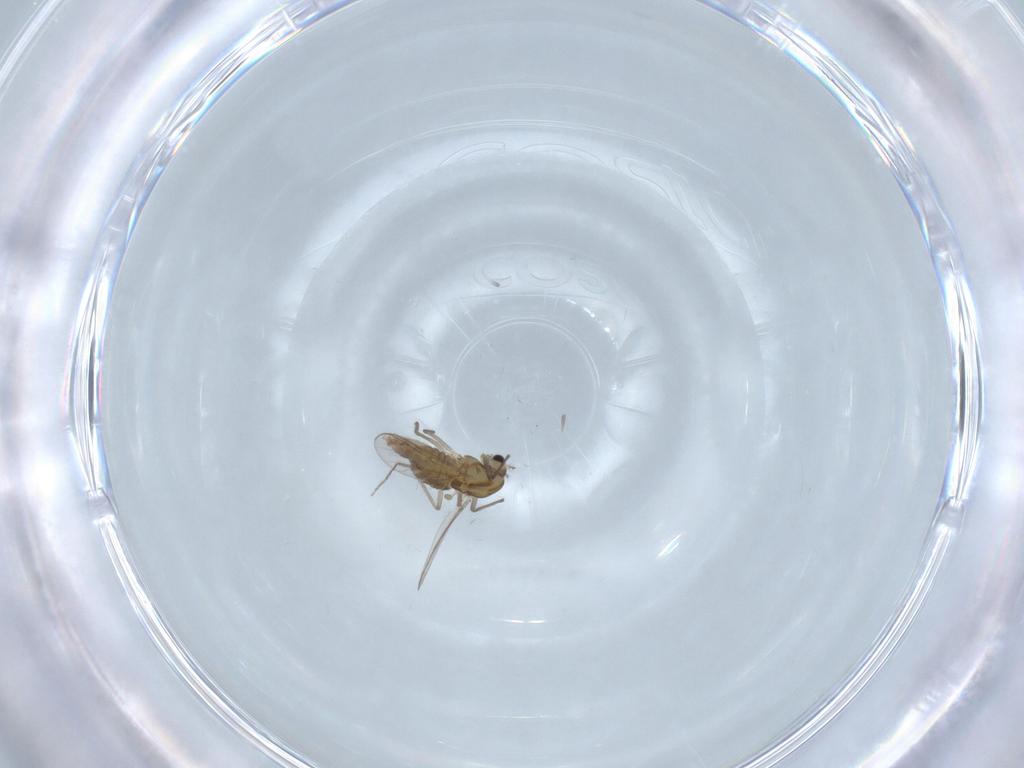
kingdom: Animalia
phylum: Arthropoda
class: Insecta
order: Diptera
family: Chironomidae
